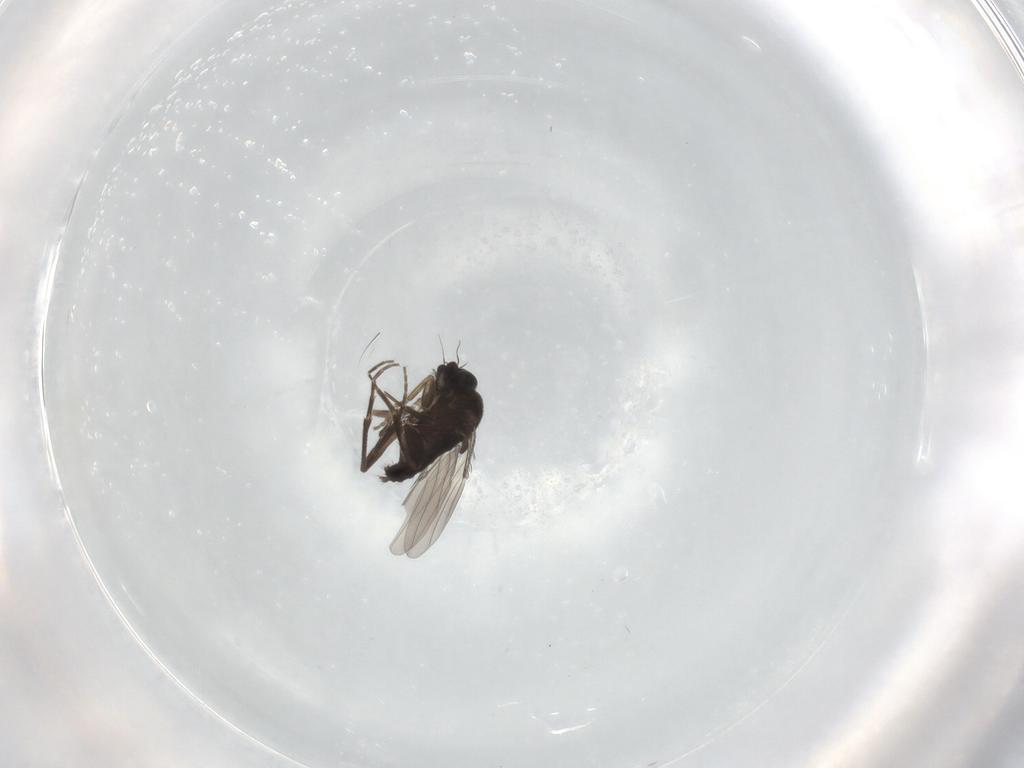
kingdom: Animalia
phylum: Arthropoda
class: Insecta
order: Diptera
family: Phoridae
